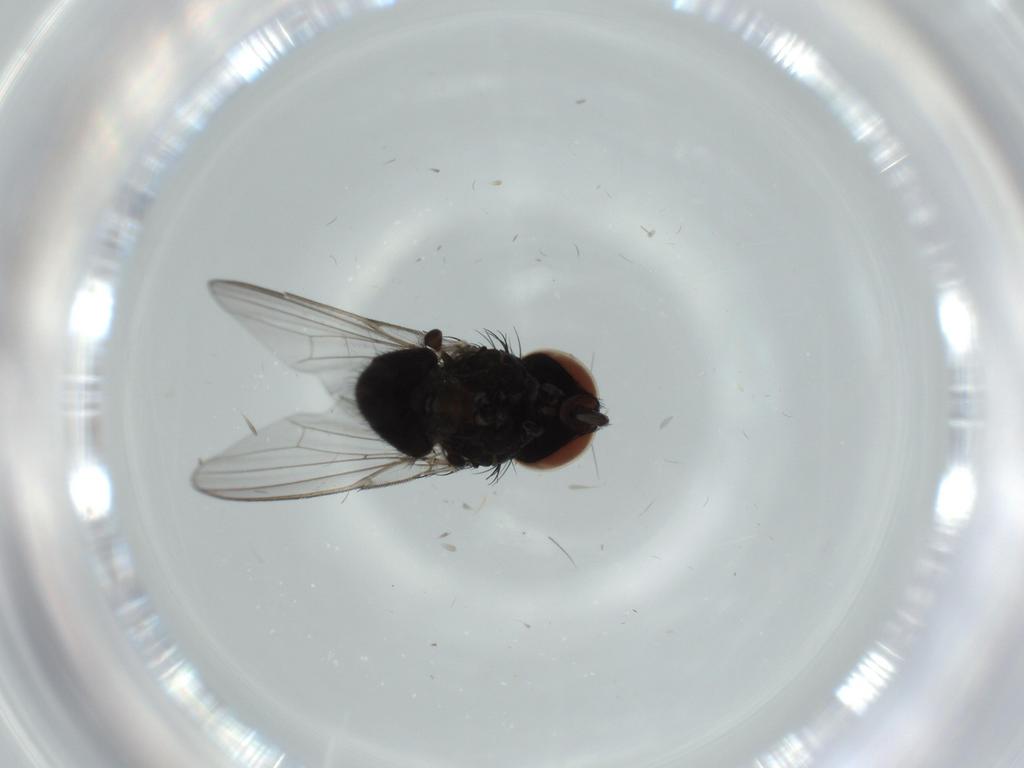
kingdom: Animalia
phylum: Arthropoda
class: Insecta
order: Diptera
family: Milichiidae
